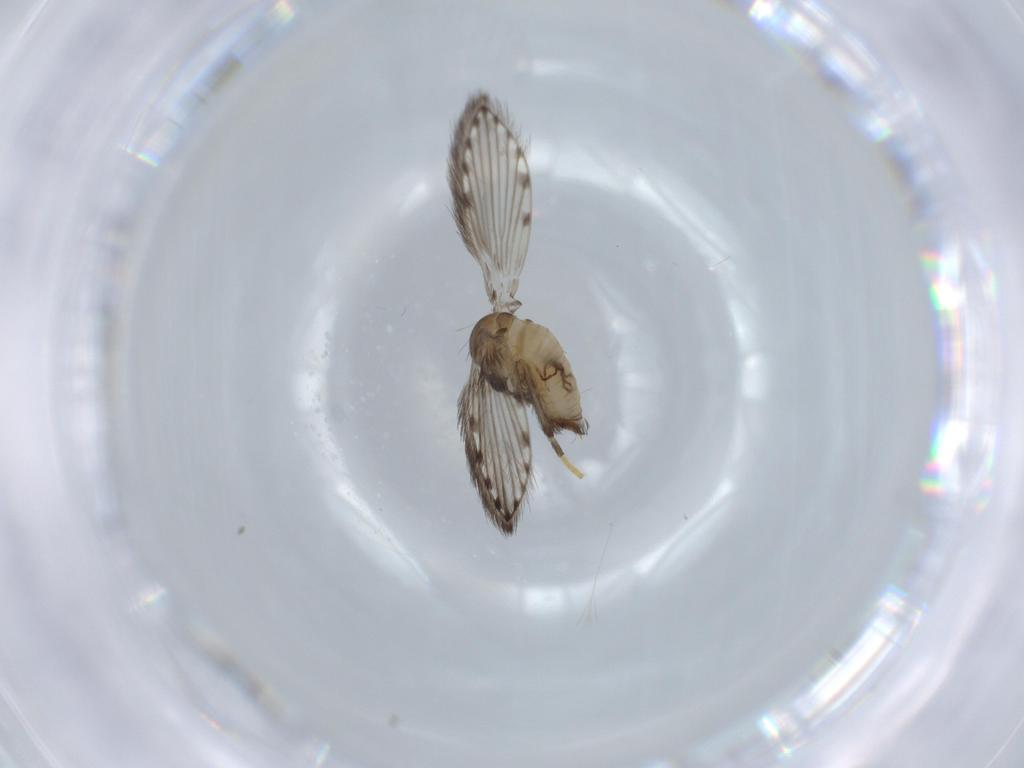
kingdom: Animalia
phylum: Arthropoda
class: Insecta
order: Diptera
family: Psychodidae
